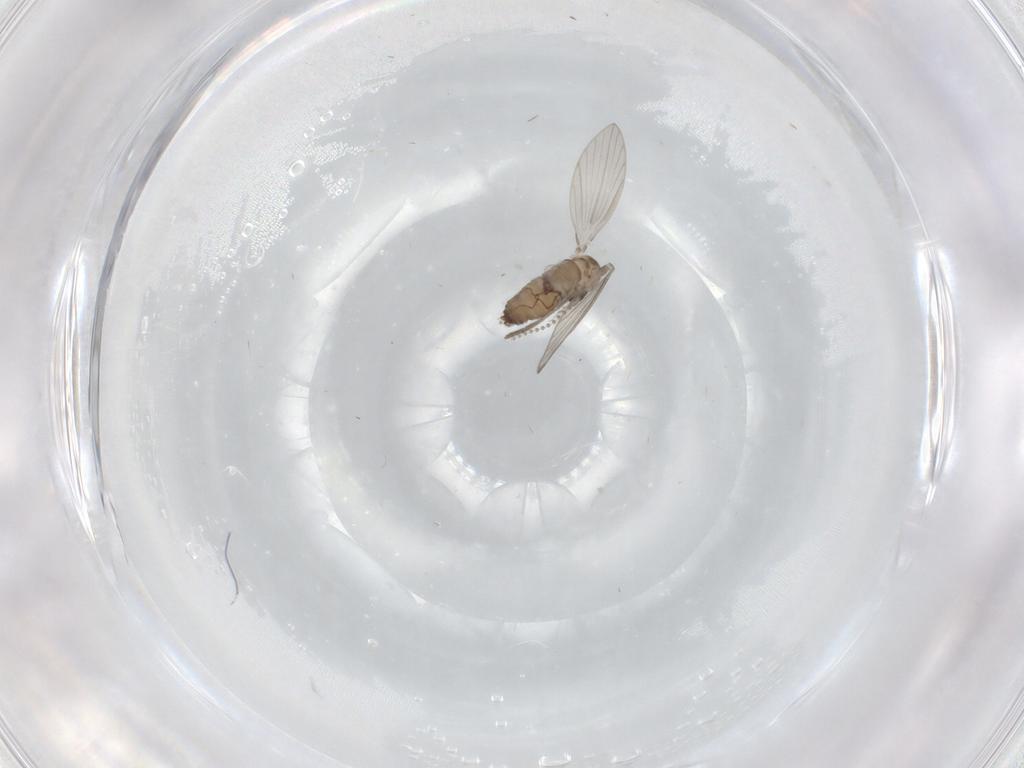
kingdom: Animalia
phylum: Arthropoda
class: Insecta
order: Diptera
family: Psychodidae
